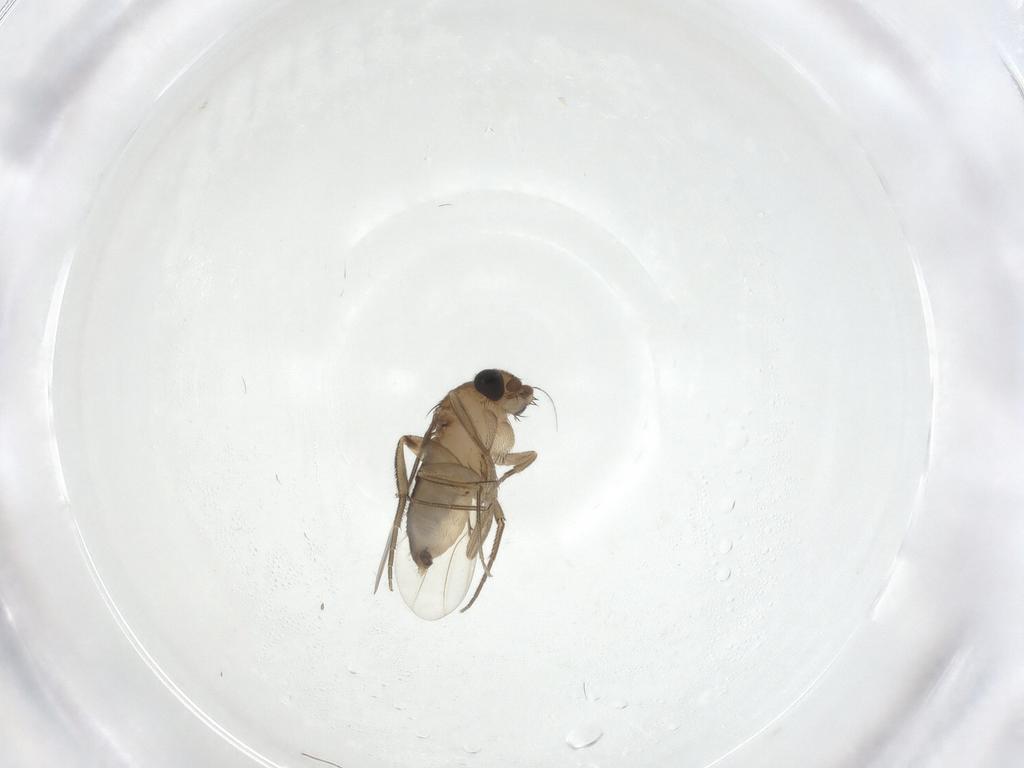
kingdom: Animalia
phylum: Arthropoda
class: Insecta
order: Diptera
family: Phoridae
